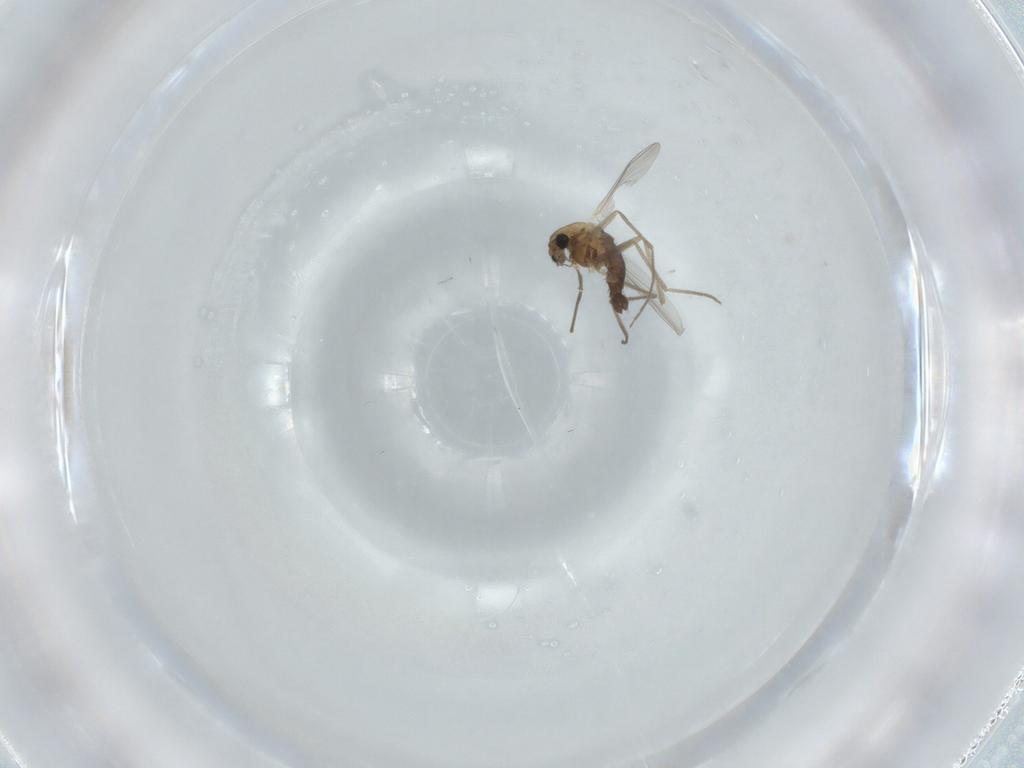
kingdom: Animalia
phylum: Arthropoda
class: Insecta
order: Diptera
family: Chironomidae
